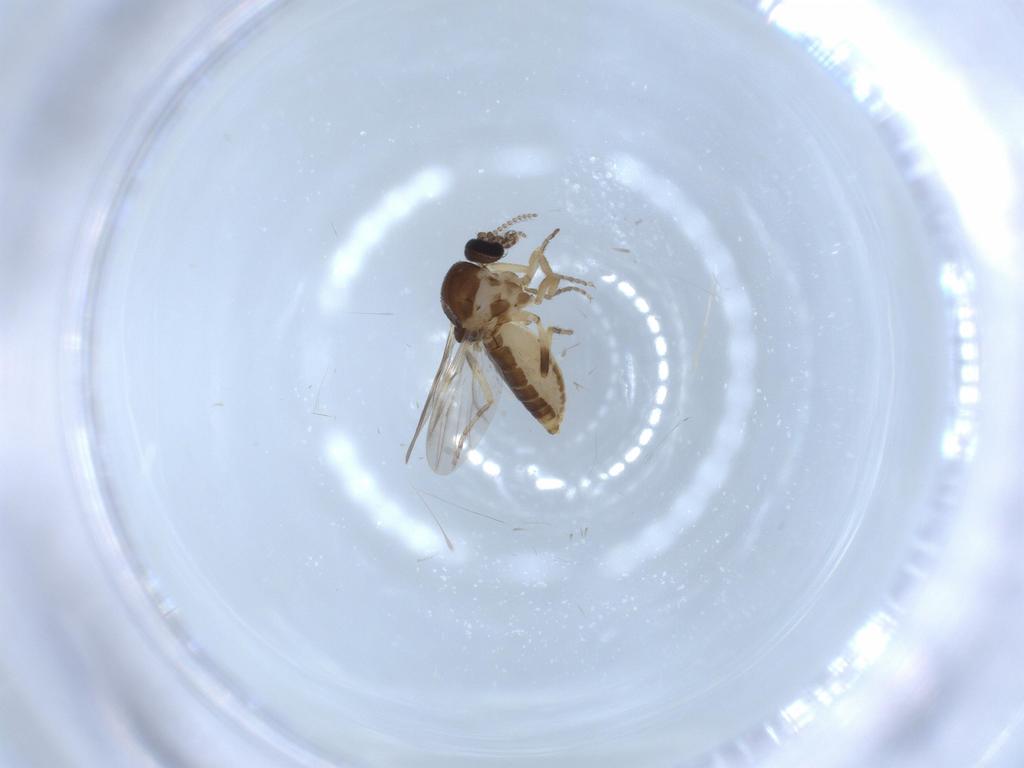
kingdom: Animalia
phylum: Arthropoda
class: Insecta
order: Diptera
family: Ceratopogonidae
